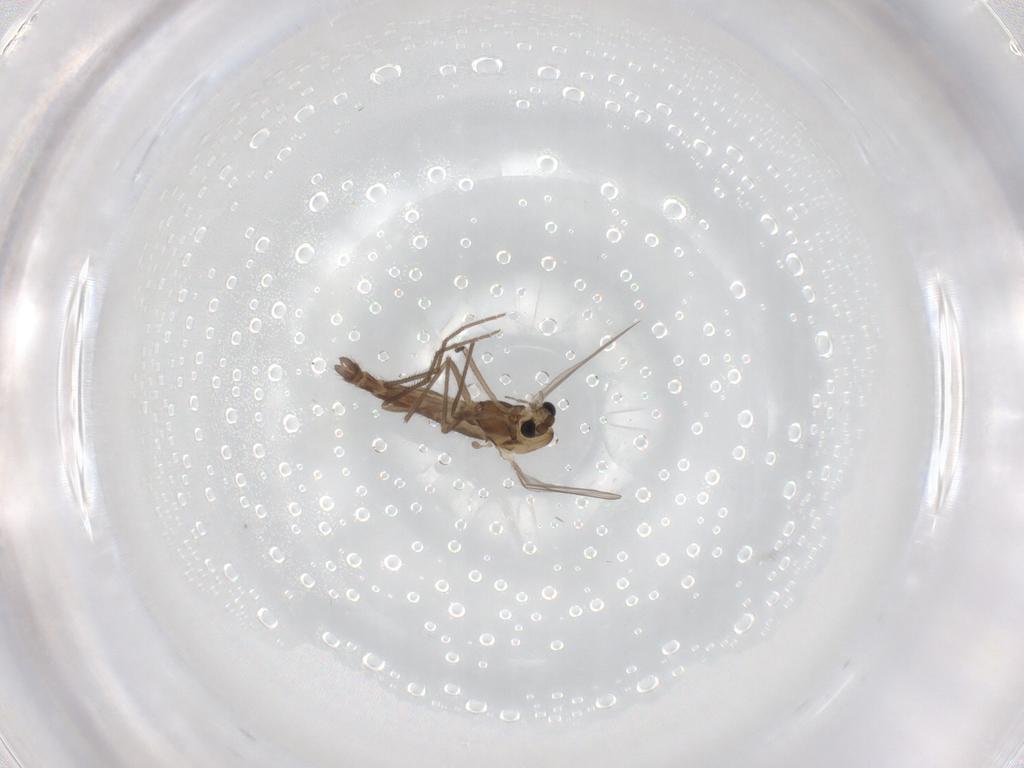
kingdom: Animalia
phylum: Arthropoda
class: Insecta
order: Diptera
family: Chironomidae
